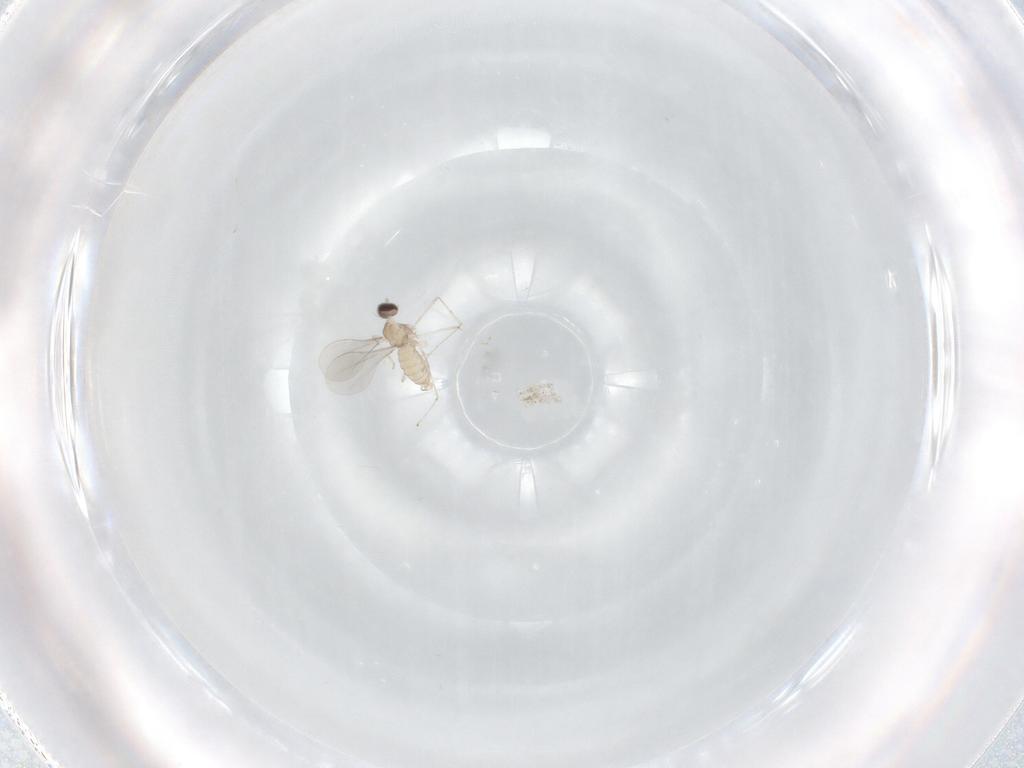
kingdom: Animalia
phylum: Arthropoda
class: Insecta
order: Diptera
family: Cecidomyiidae
